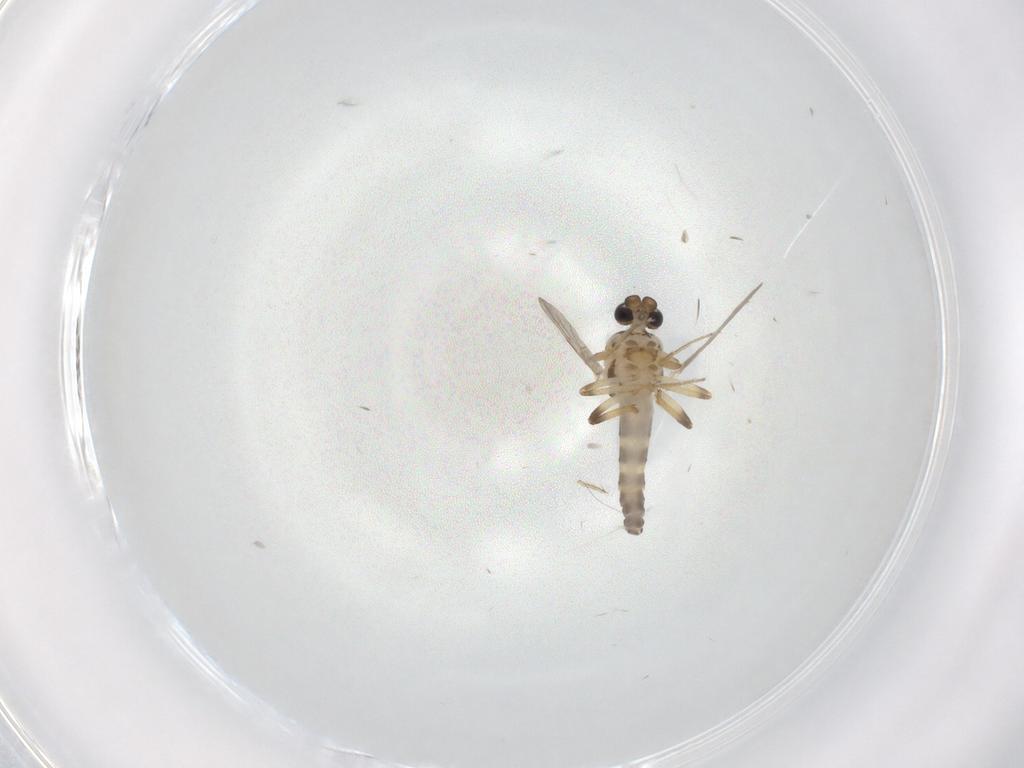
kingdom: Animalia
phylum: Arthropoda
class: Insecta
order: Diptera
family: Ceratopogonidae
